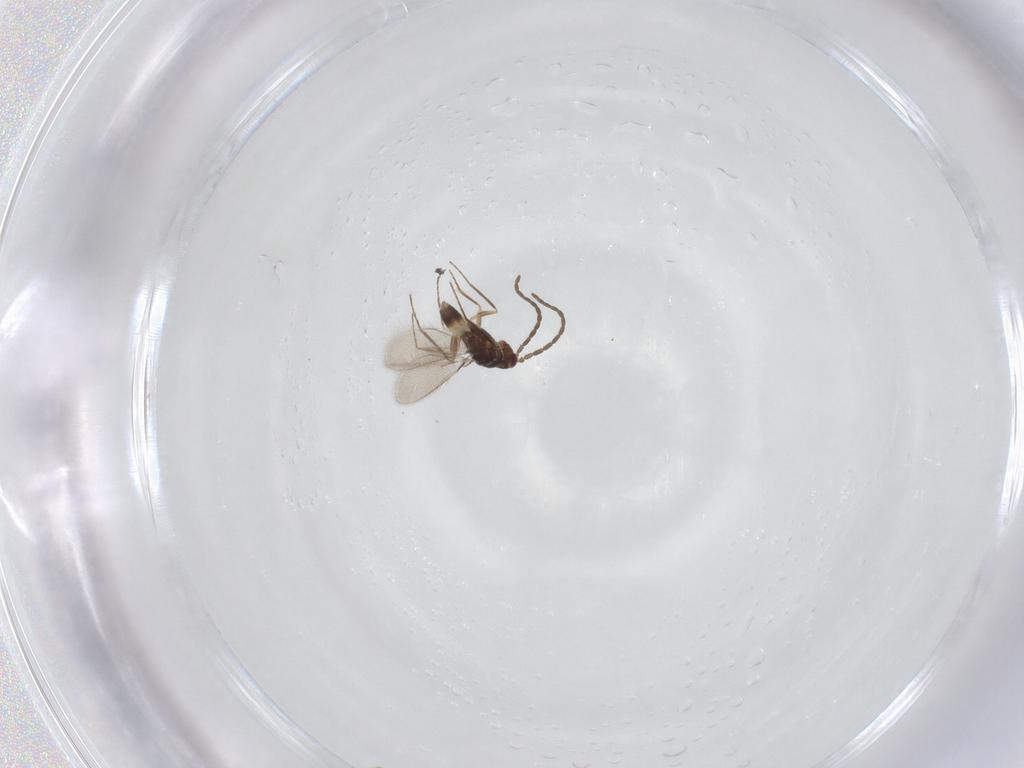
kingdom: Animalia
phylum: Arthropoda
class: Insecta
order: Hymenoptera
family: Mymaridae
